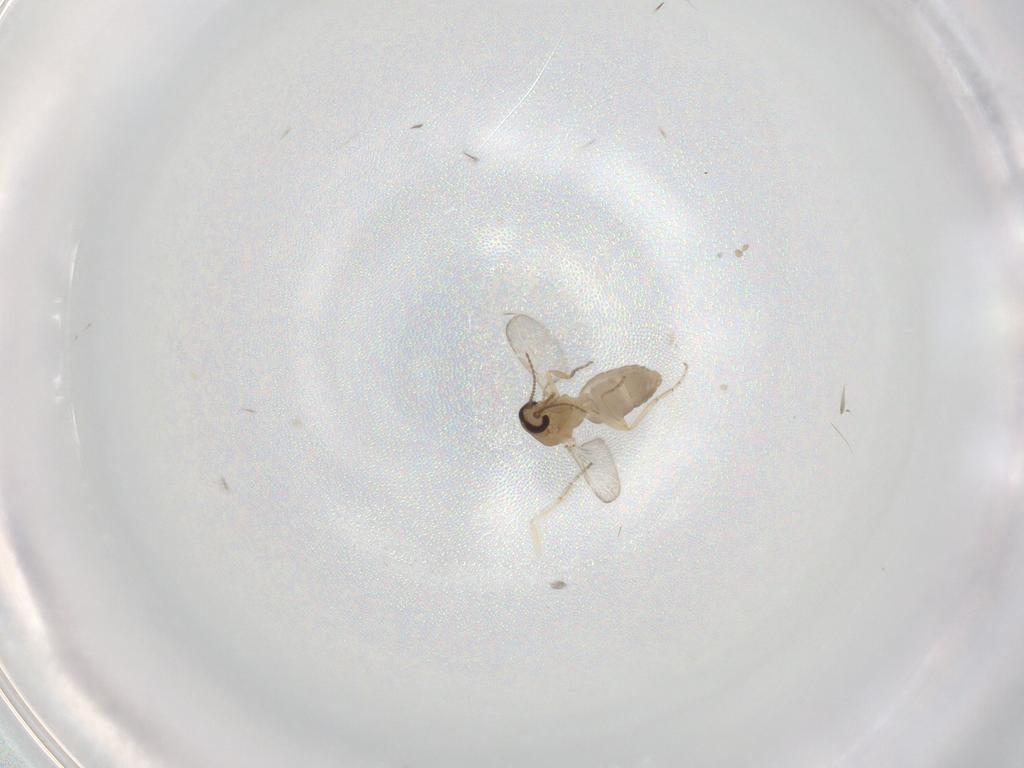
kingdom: Animalia
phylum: Arthropoda
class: Insecta
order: Diptera
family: Ceratopogonidae
